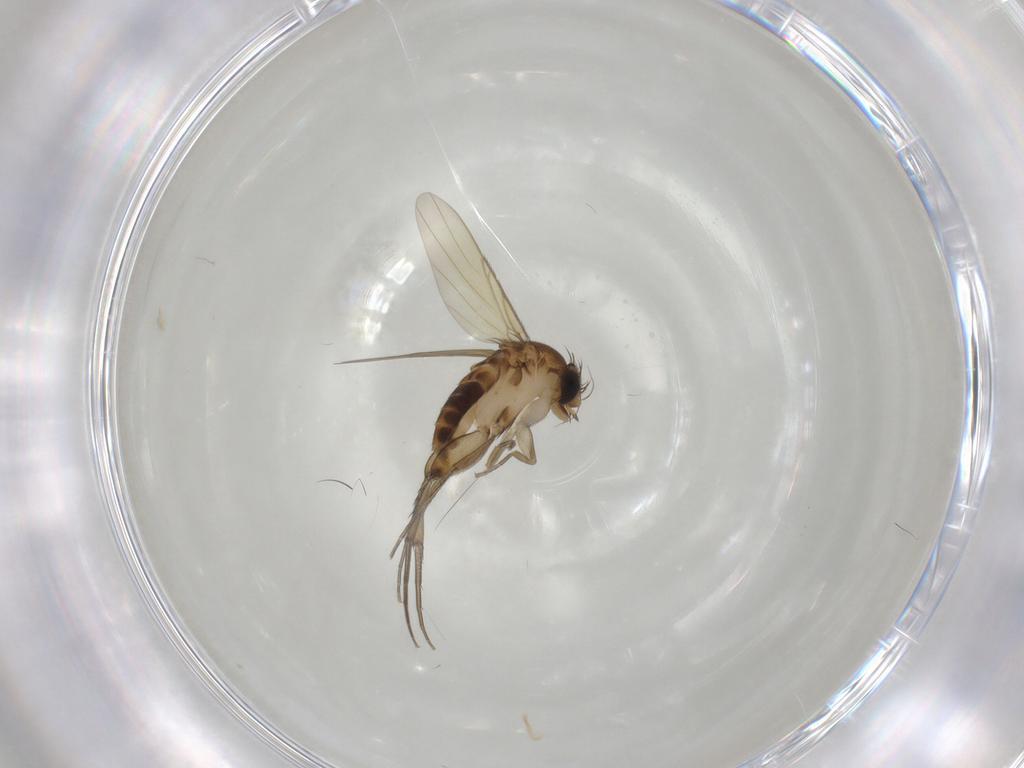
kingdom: Animalia
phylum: Arthropoda
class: Insecta
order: Diptera
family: Phoridae
